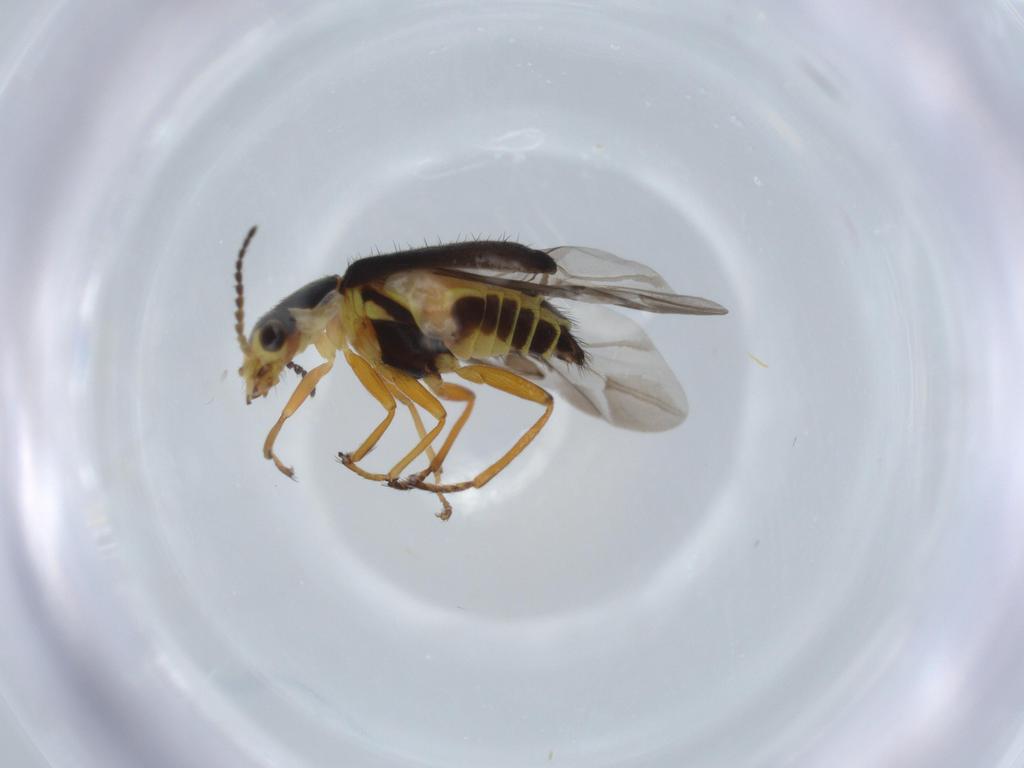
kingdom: Animalia
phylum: Arthropoda
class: Insecta
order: Coleoptera
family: Melyridae
